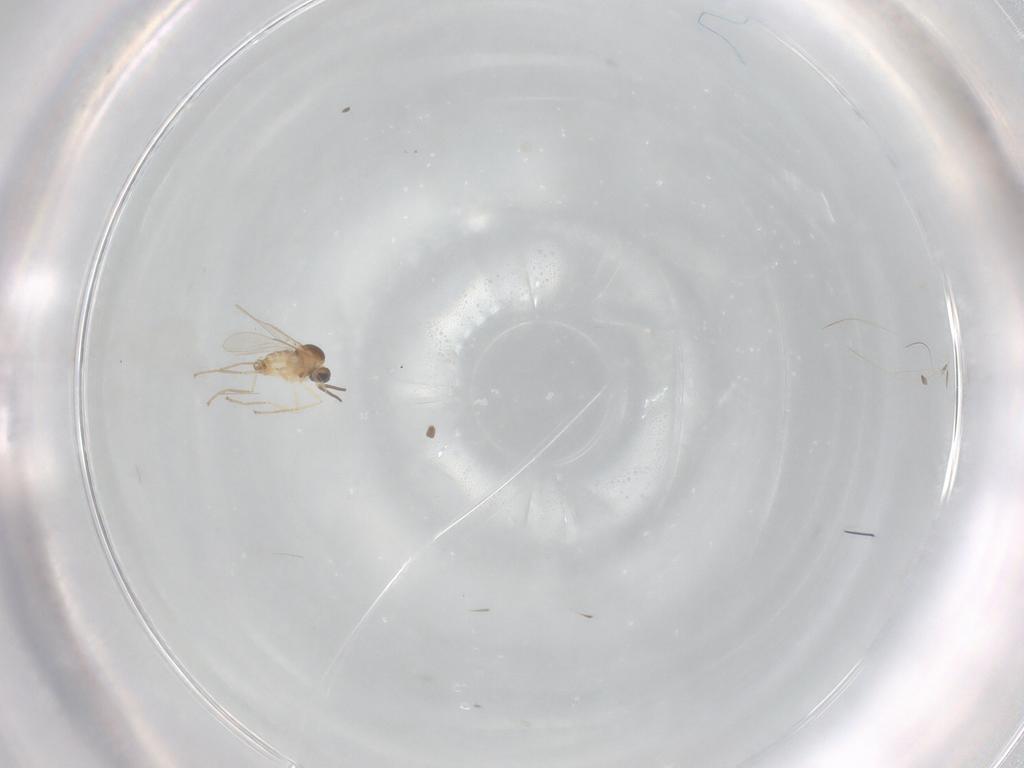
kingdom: Animalia
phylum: Arthropoda
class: Insecta
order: Diptera
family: Cecidomyiidae
